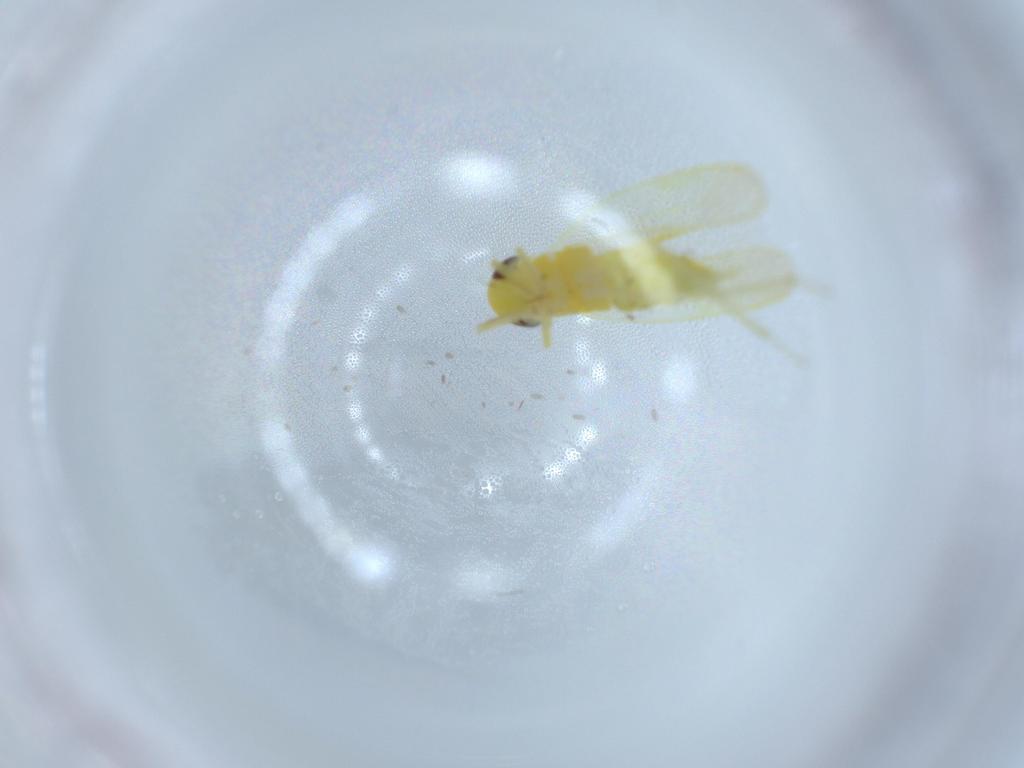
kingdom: Animalia
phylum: Arthropoda
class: Insecta
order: Hemiptera
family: Cicadellidae
